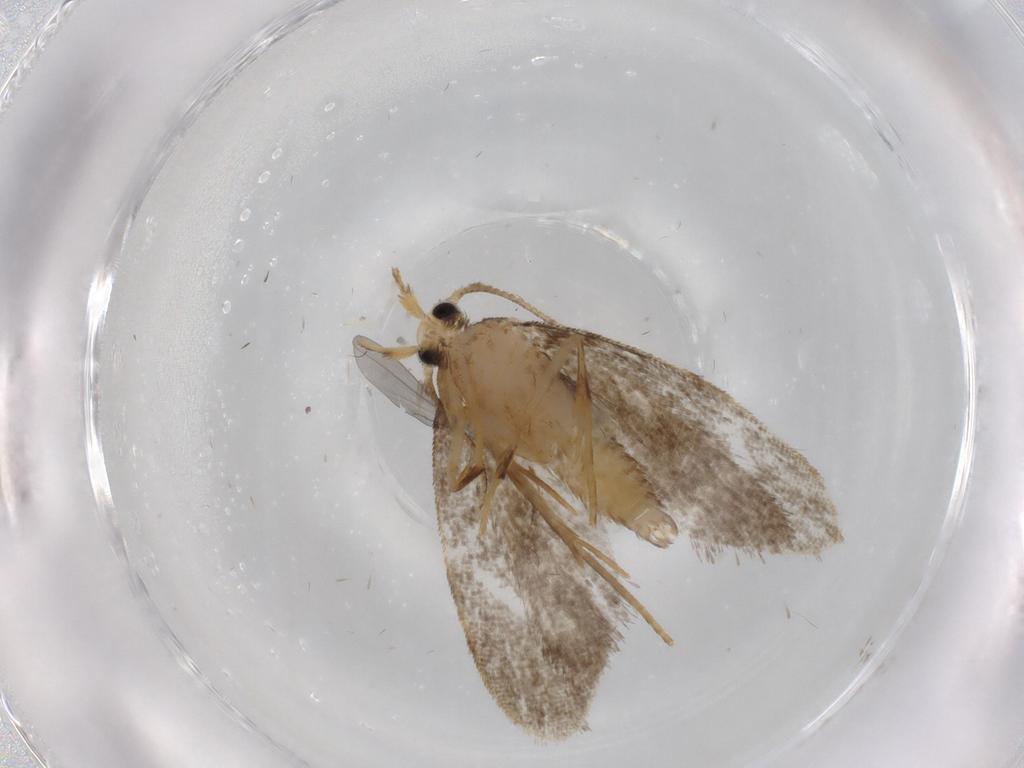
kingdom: Animalia
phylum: Arthropoda
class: Insecta
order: Lepidoptera
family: Psychidae
